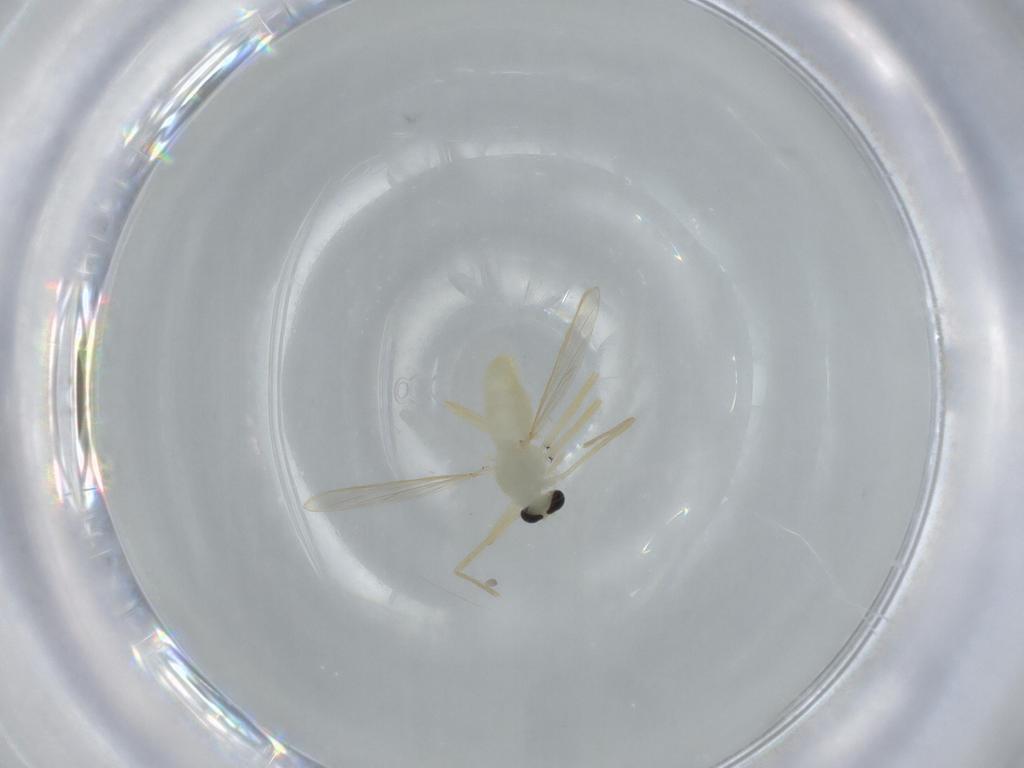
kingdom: Animalia
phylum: Arthropoda
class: Insecta
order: Diptera
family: Chironomidae
